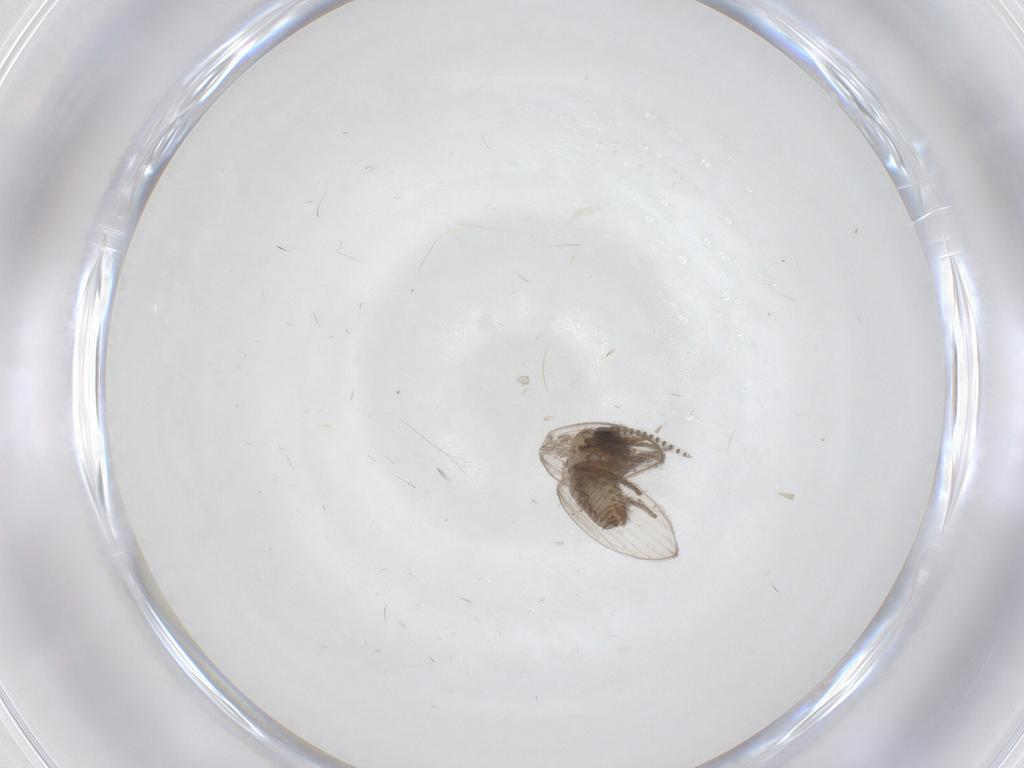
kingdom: Animalia
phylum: Arthropoda
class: Insecta
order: Diptera
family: Psychodidae
